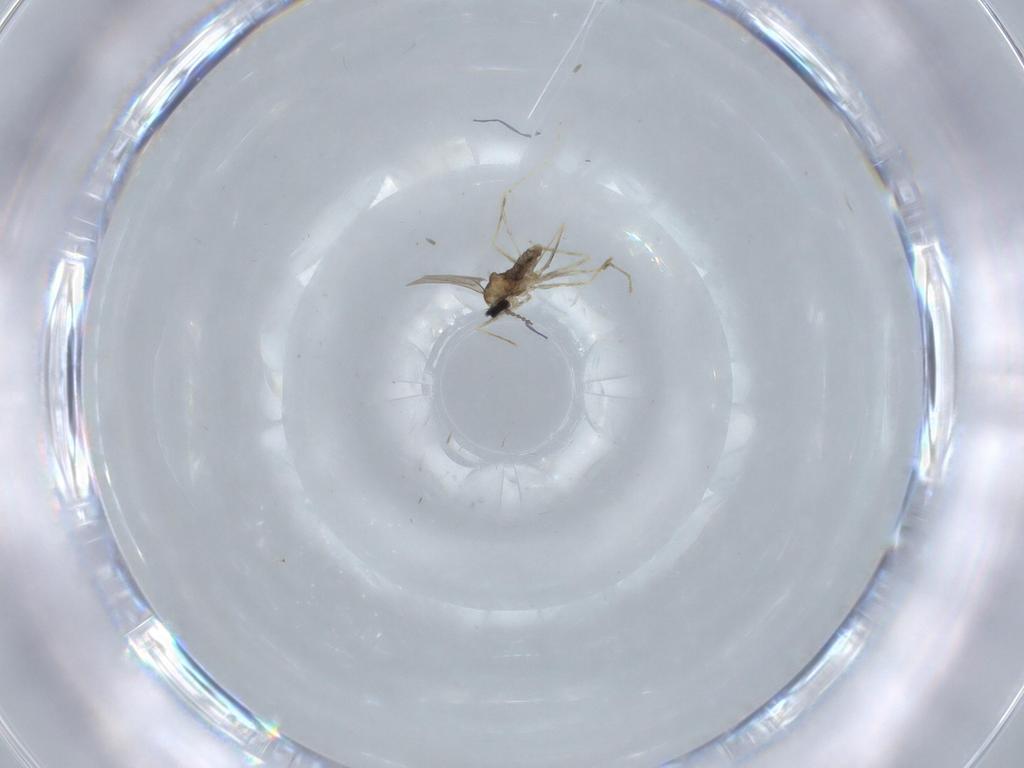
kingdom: Animalia
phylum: Arthropoda
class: Insecta
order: Diptera
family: Cecidomyiidae
